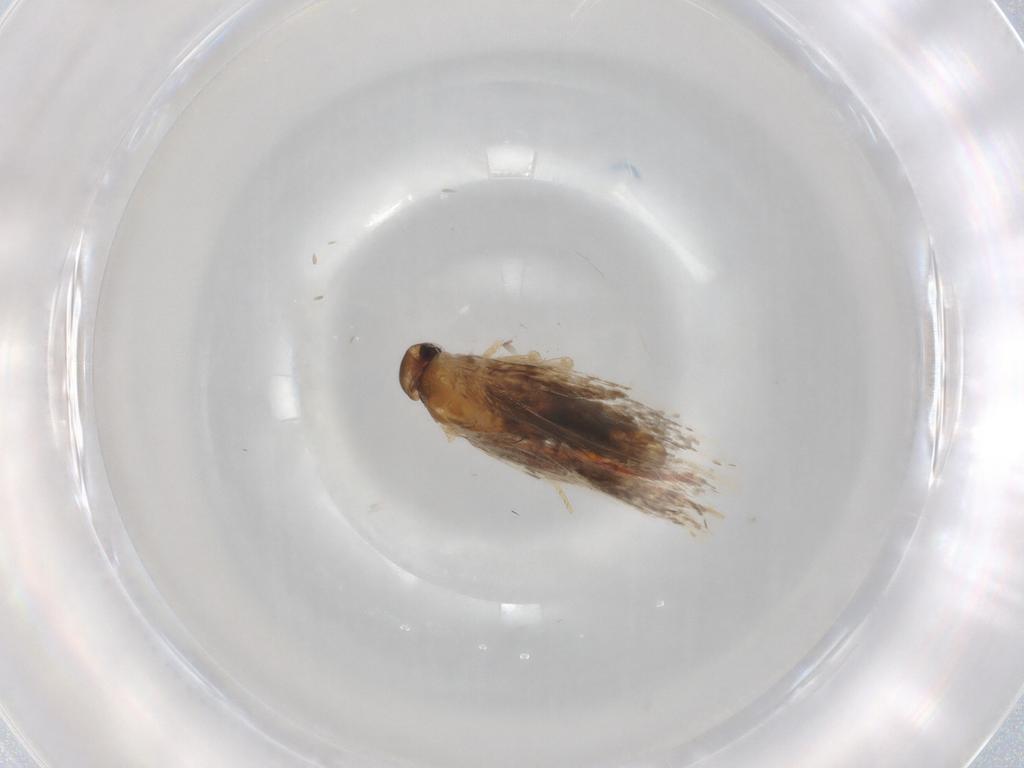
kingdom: Animalia
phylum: Arthropoda
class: Insecta
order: Lepidoptera
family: Oecophoridae
